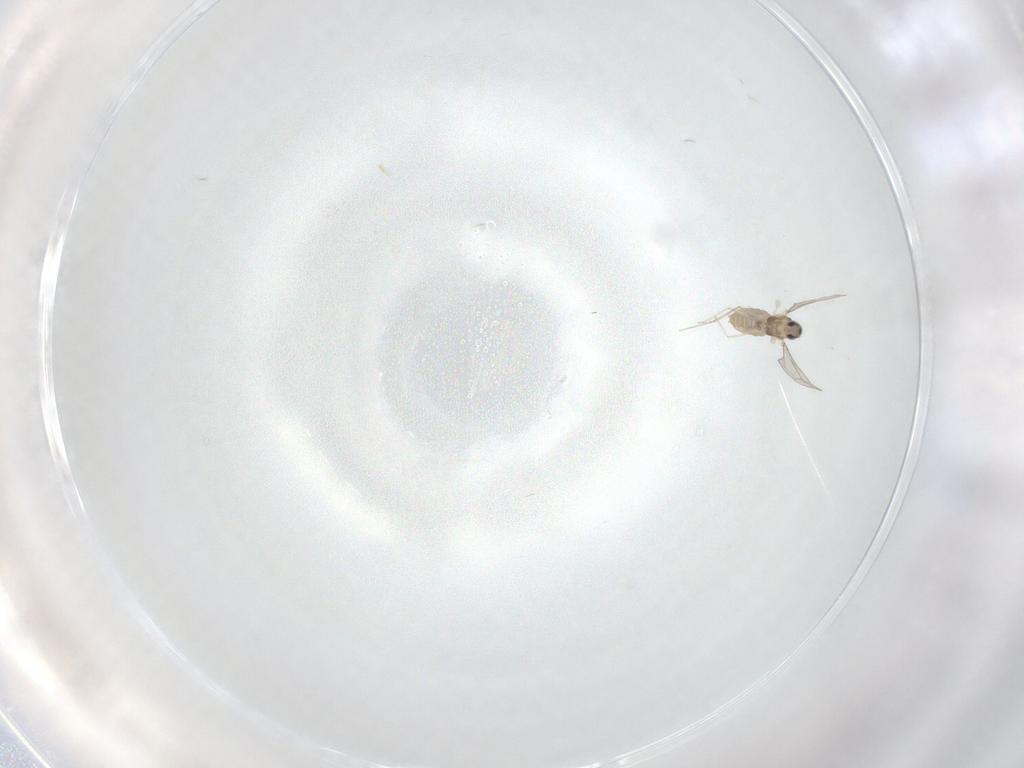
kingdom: Animalia
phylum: Arthropoda
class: Insecta
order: Diptera
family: Cecidomyiidae
